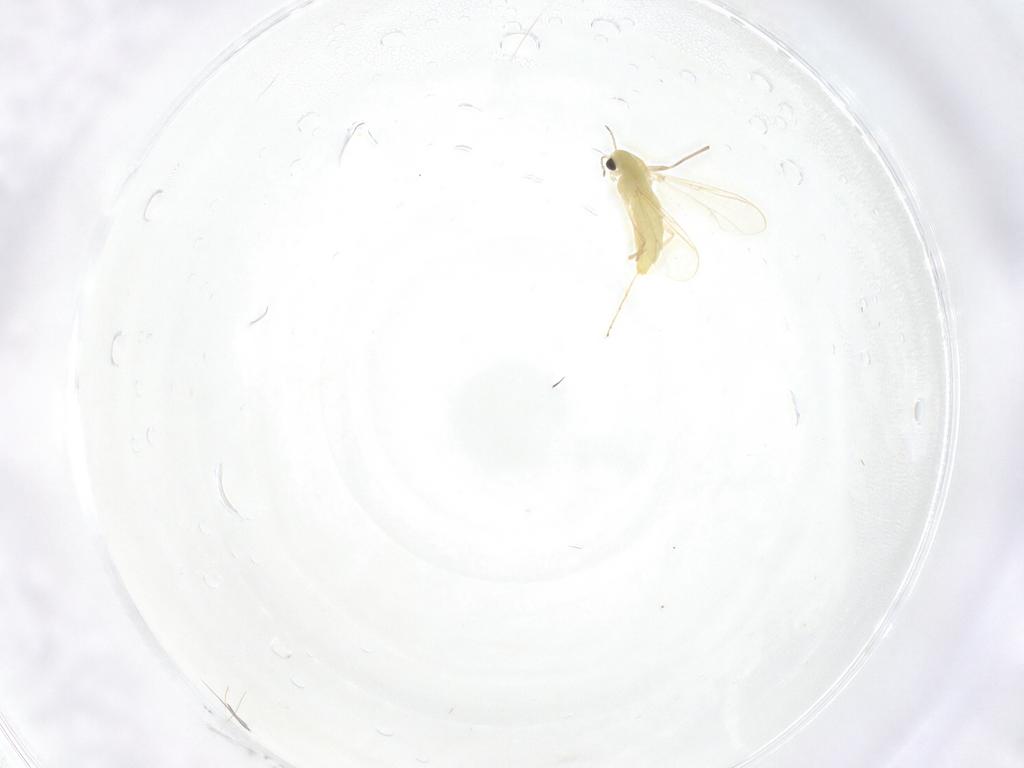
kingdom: Animalia
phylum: Arthropoda
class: Insecta
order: Diptera
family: Chironomidae
